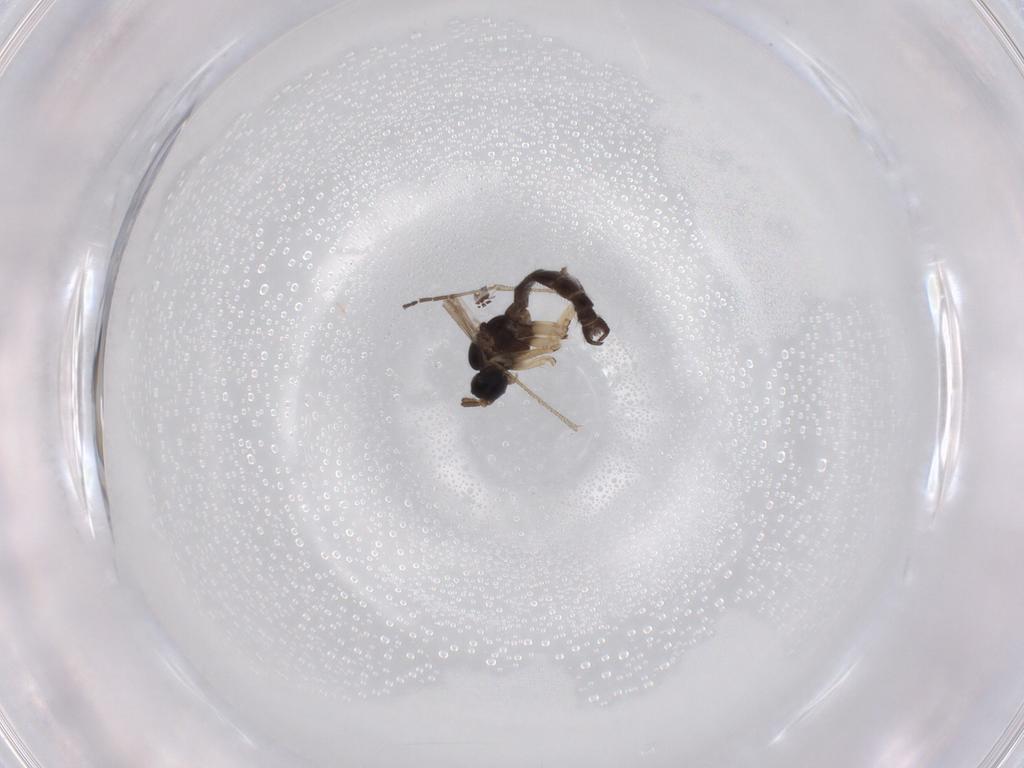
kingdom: Animalia
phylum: Arthropoda
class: Insecta
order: Diptera
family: Sciaridae
